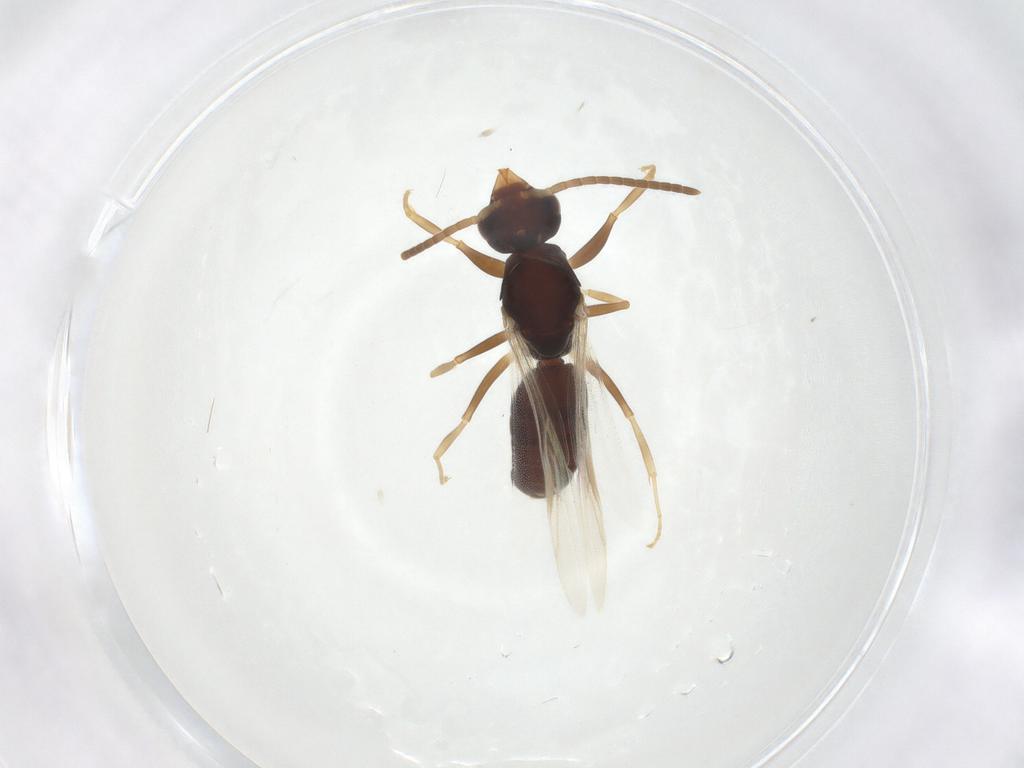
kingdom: Animalia
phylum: Arthropoda
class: Insecta
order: Hymenoptera
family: Formicidae
